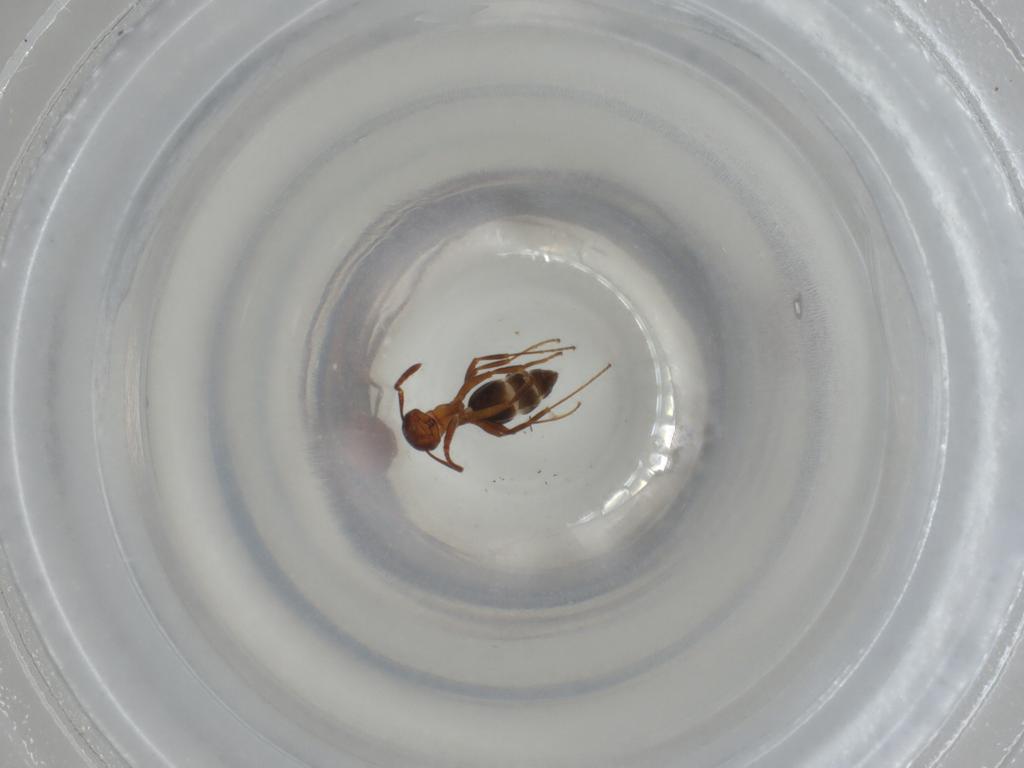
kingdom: Animalia
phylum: Arthropoda
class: Insecta
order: Hymenoptera
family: Formicidae
